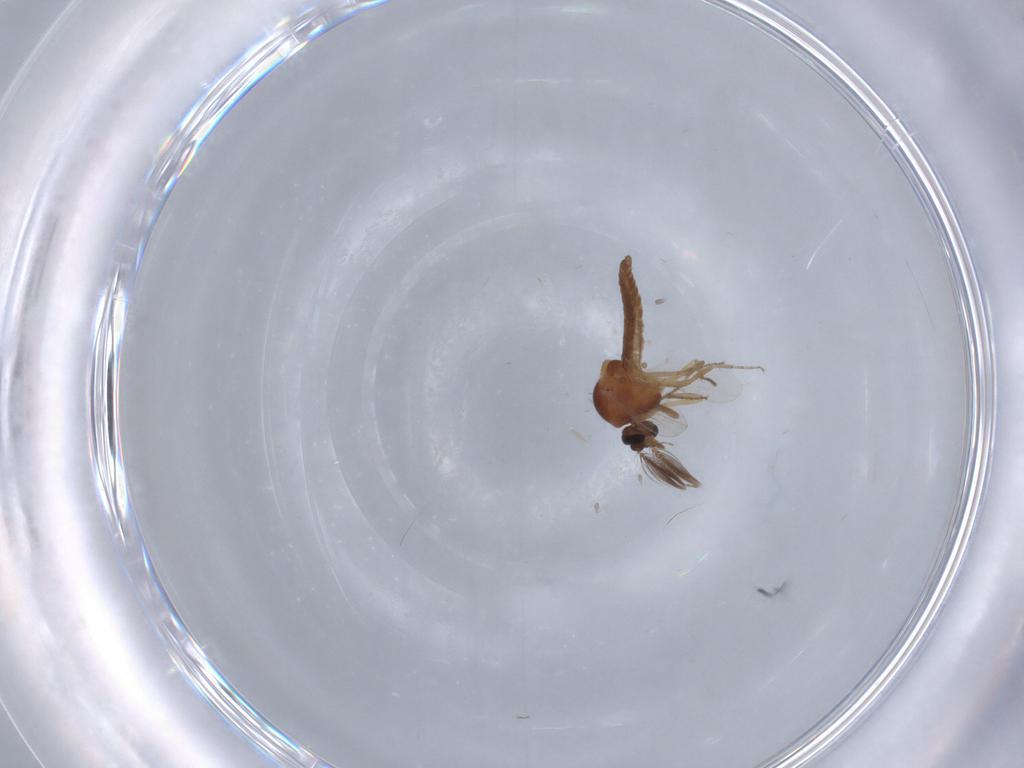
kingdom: Animalia
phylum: Arthropoda
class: Insecta
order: Diptera
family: Ceratopogonidae
